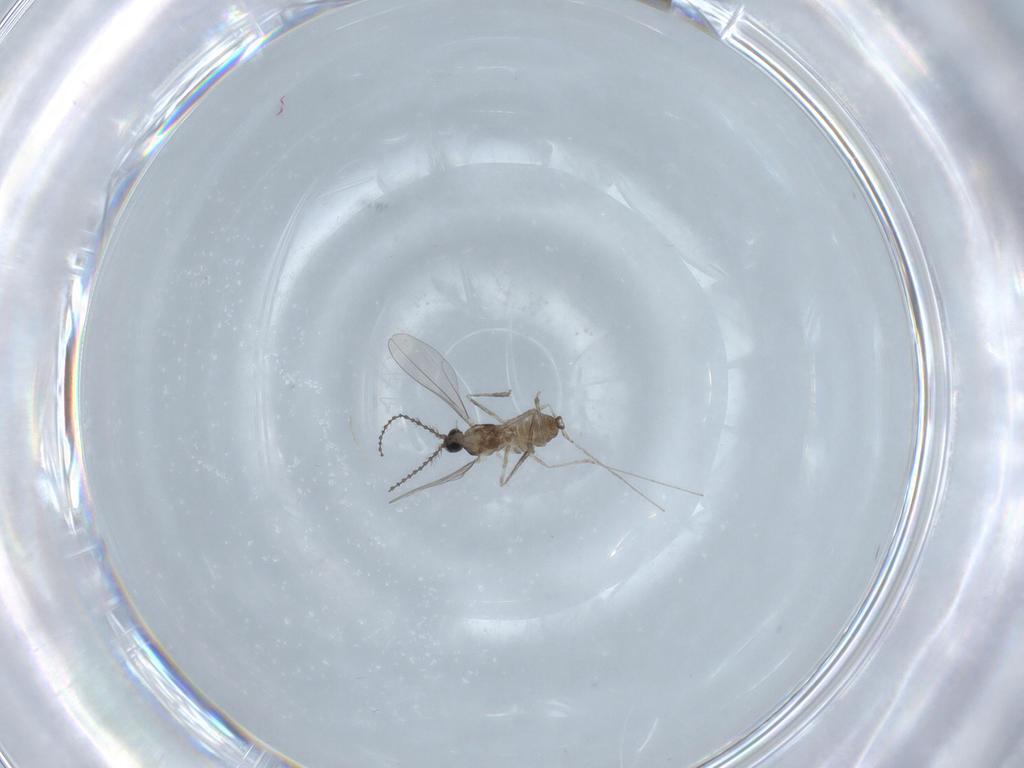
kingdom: Animalia
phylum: Arthropoda
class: Insecta
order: Diptera
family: Cecidomyiidae
